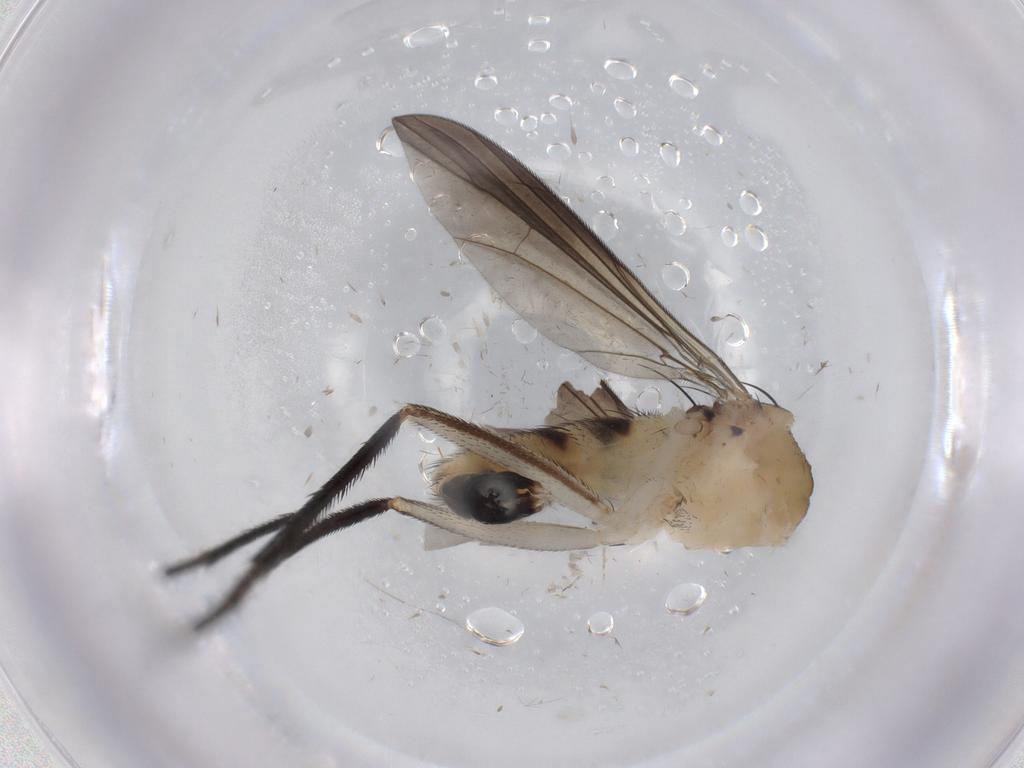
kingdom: Animalia
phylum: Arthropoda
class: Insecta
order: Diptera
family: Dolichopodidae
